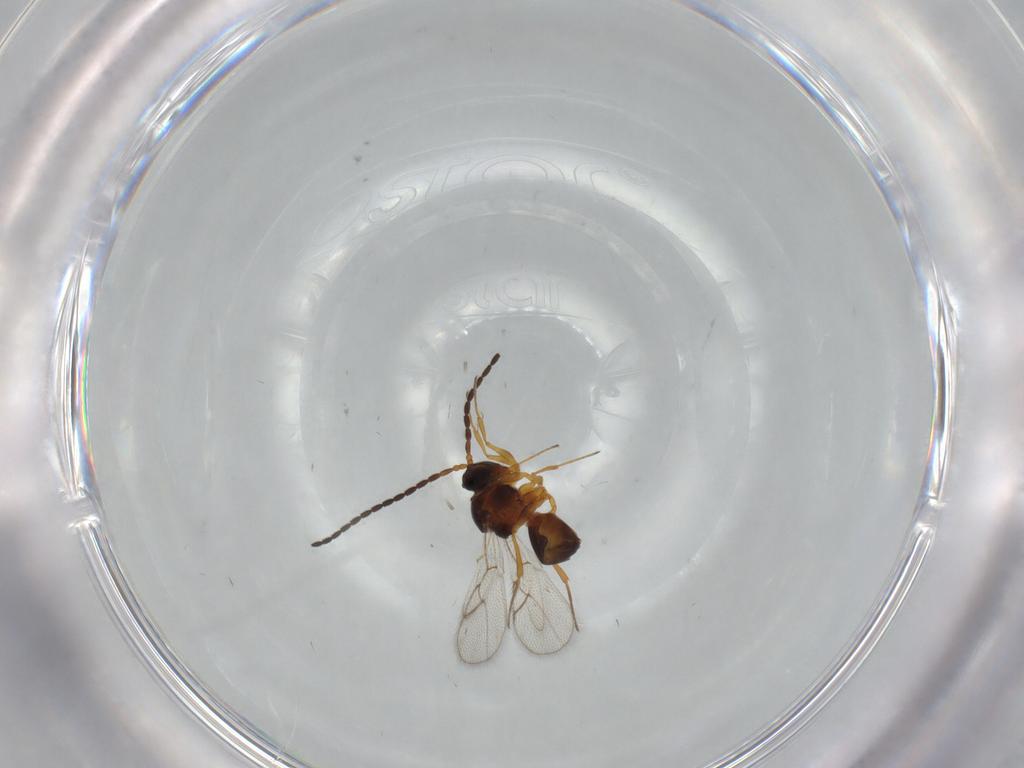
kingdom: Animalia
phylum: Arthropoda
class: Insecta
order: Hymenoptera
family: Figitidae
